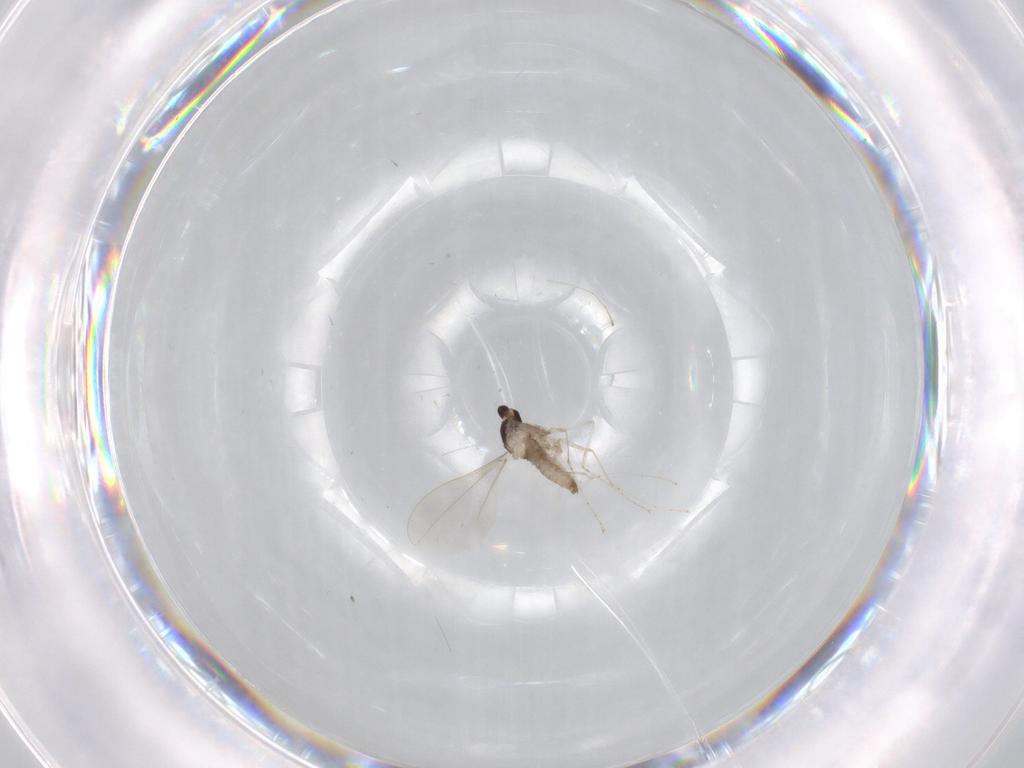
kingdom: Animalia
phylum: Arthropoda
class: Insecta
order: Diptera
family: Cecidomyiidae
